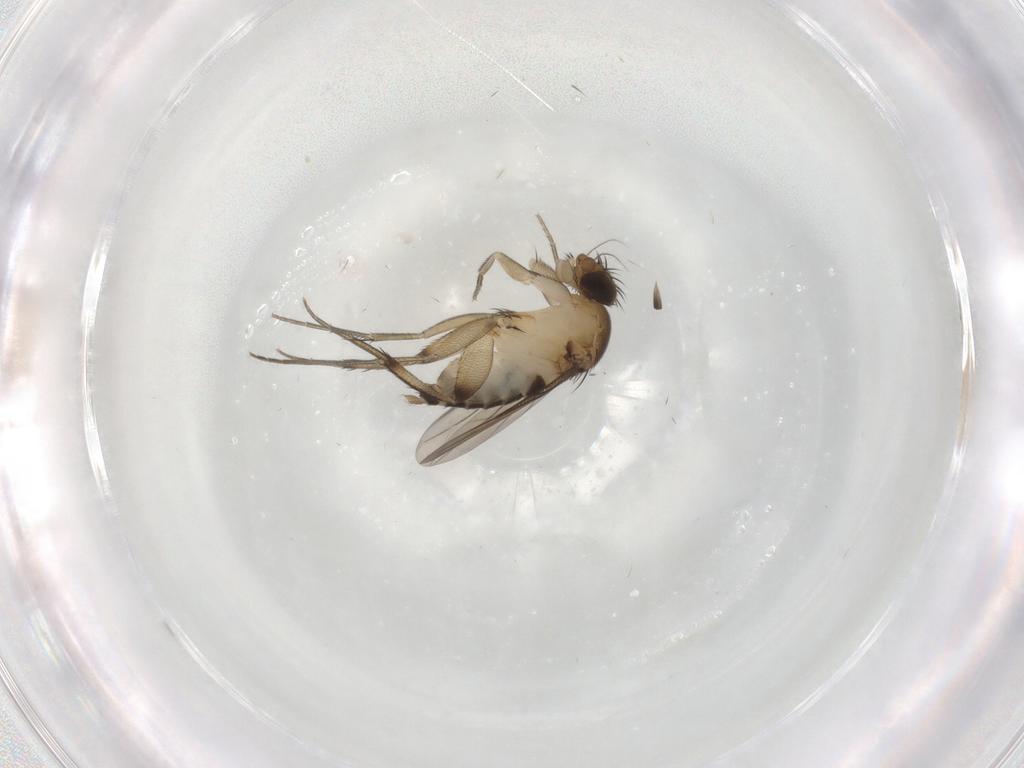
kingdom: Animalia
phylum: Arthropoda
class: Insecta
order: Diptera
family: Phoridae
